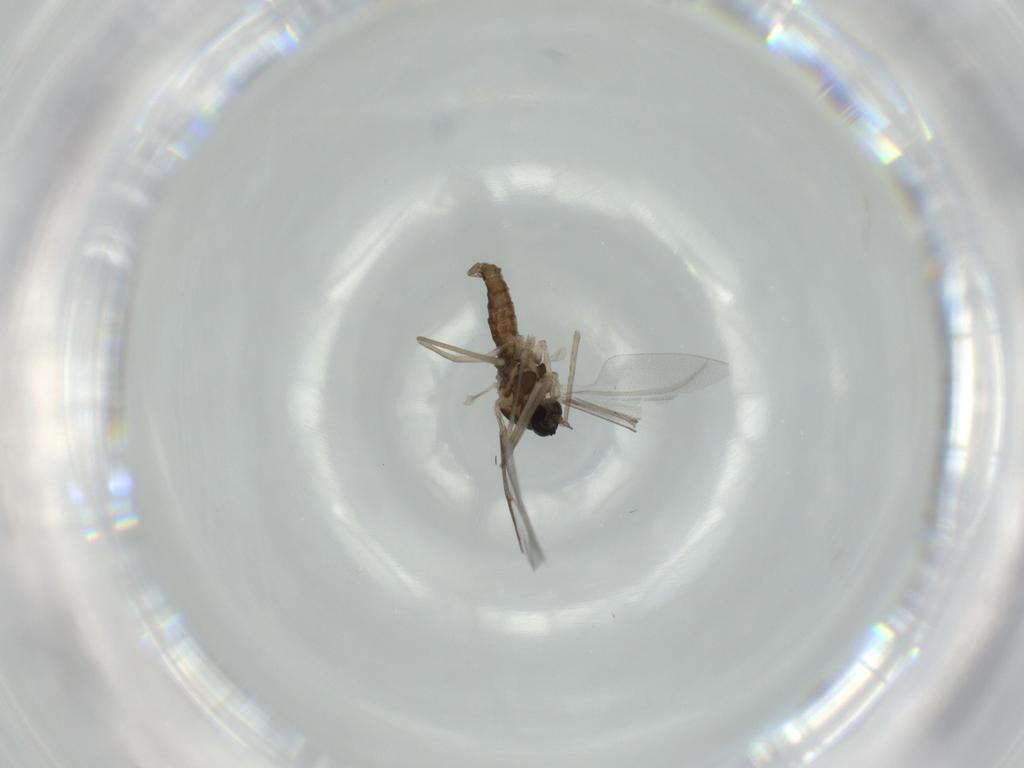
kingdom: Animalia
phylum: Arthropoda
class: Insecta
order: Diptera
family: Cecidomyiidae
